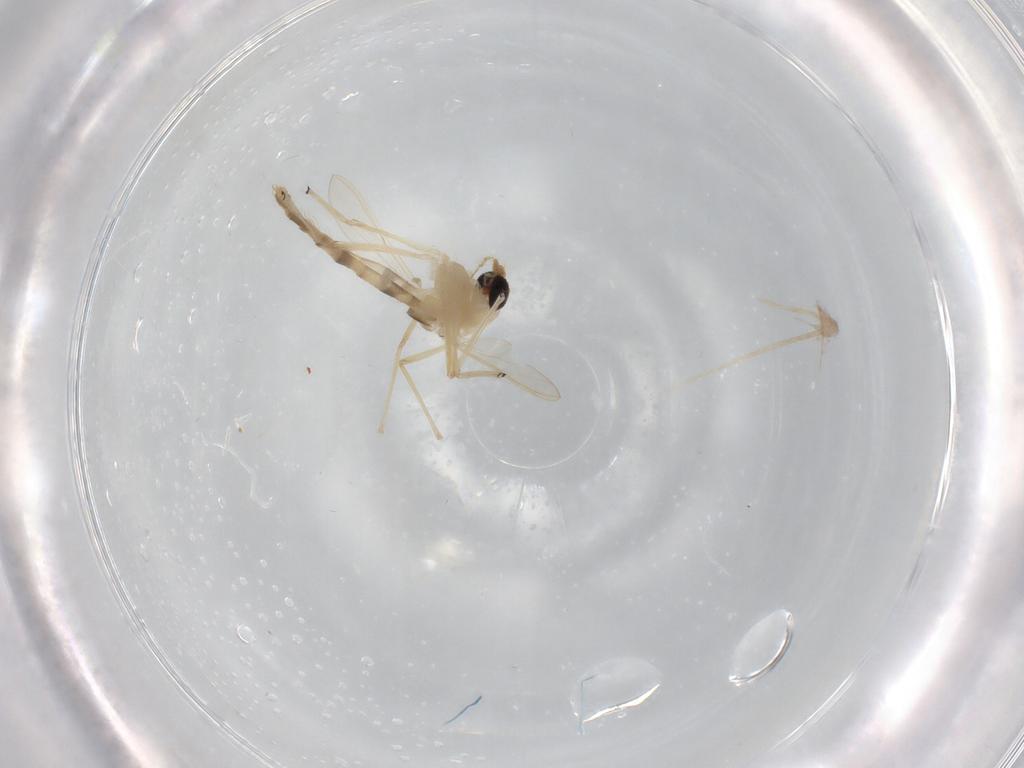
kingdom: Animalia
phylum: Arthropoda
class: Insecta
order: Diptera
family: Chironomidae
